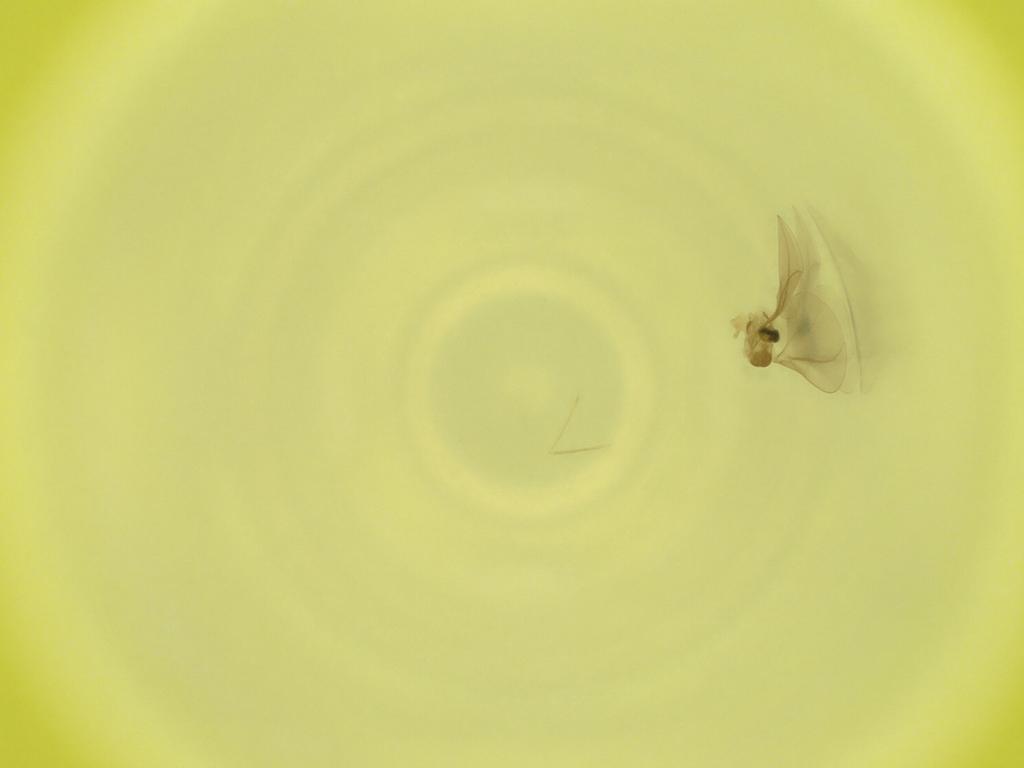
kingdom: Animalia
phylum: Arthropoda
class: Insecta
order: Diptera
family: Cecidomyiidae
